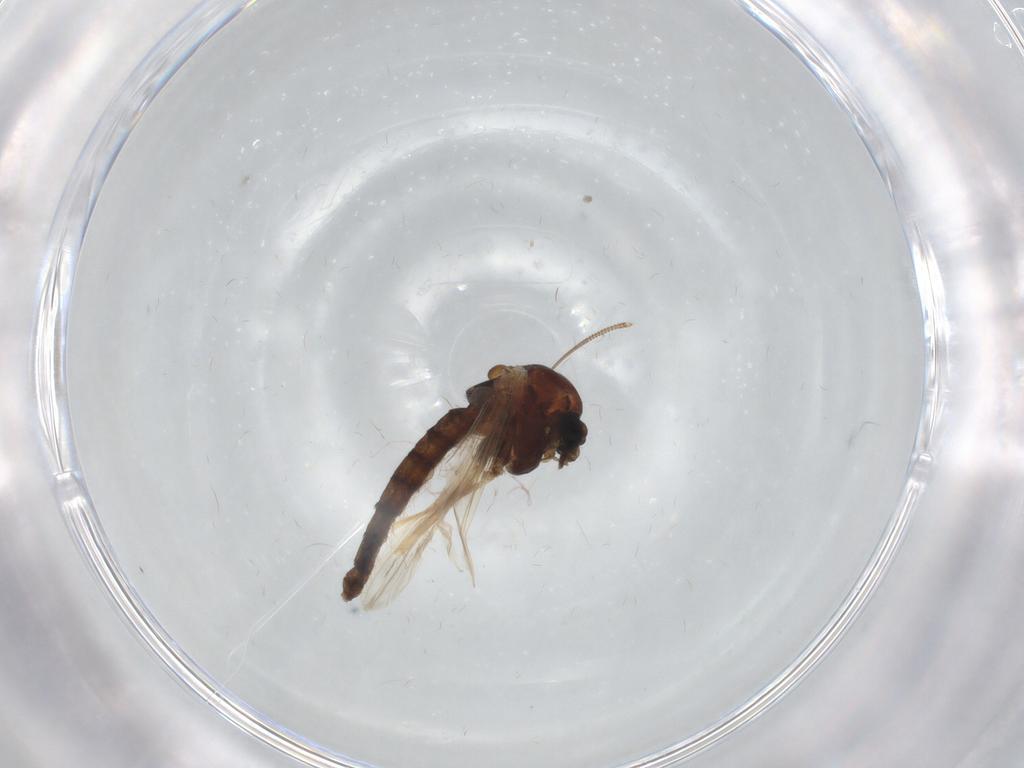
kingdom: Animalia
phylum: Arthropoda
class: Insecta
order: Diptera
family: Chironomidae
